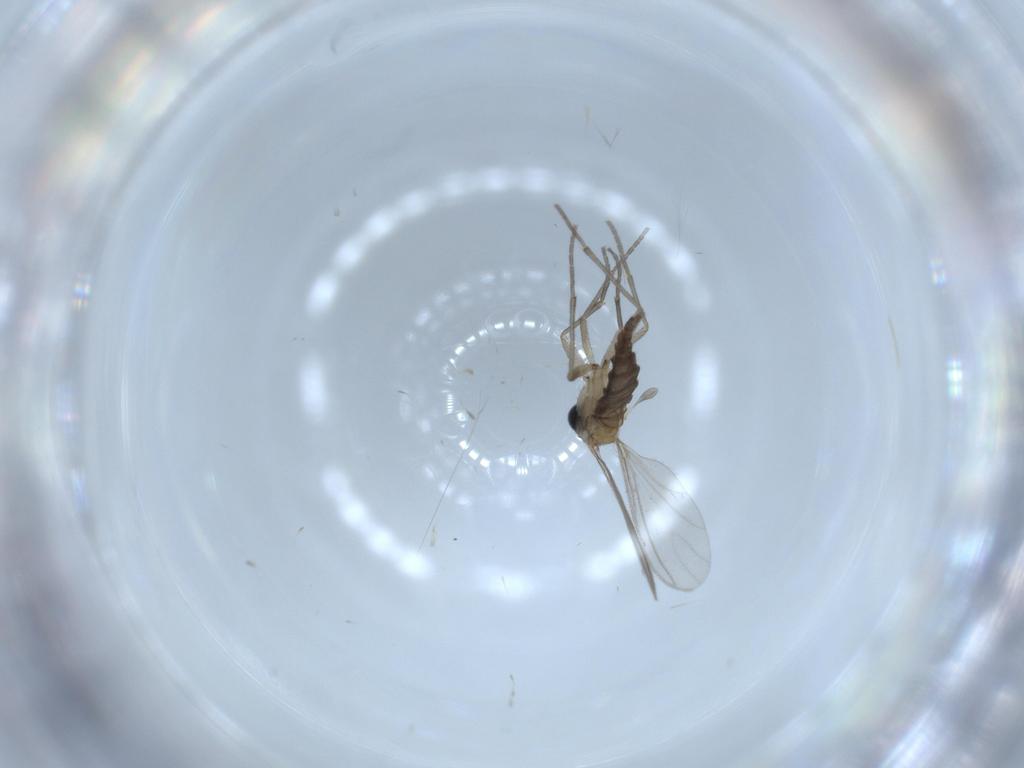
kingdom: Animalia
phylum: Arthropoda
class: Insecta
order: Diptera
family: Sciaridae
